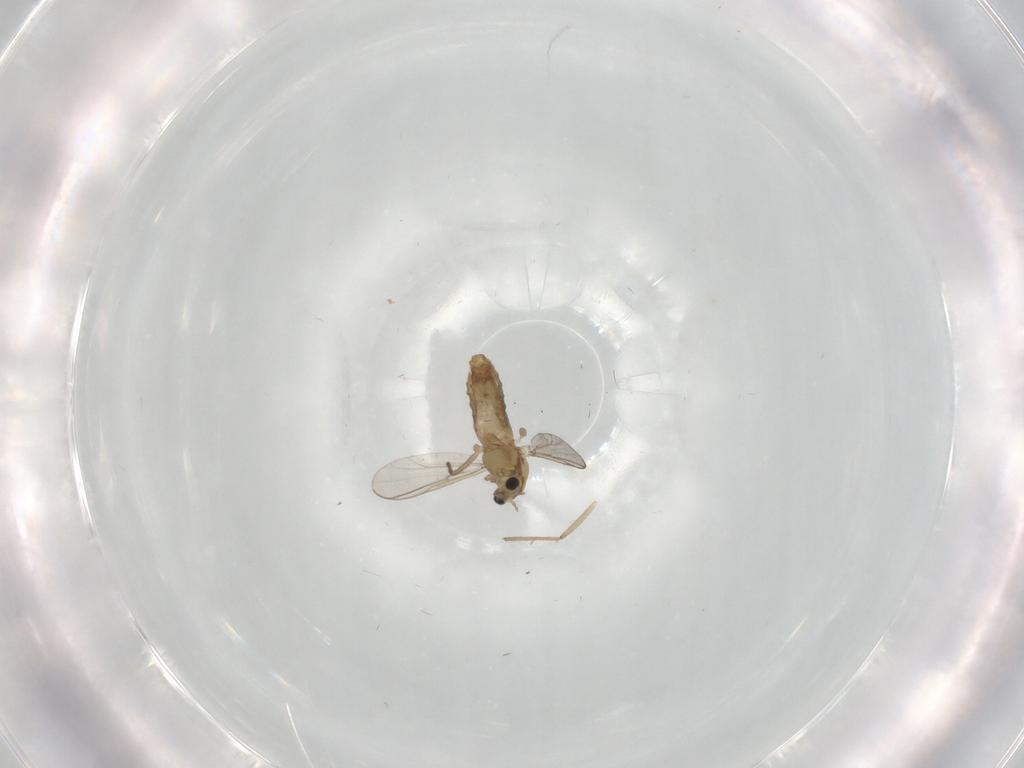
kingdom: Animalia
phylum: Arthropoda
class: Insecta
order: Diptera
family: Chironomidae
